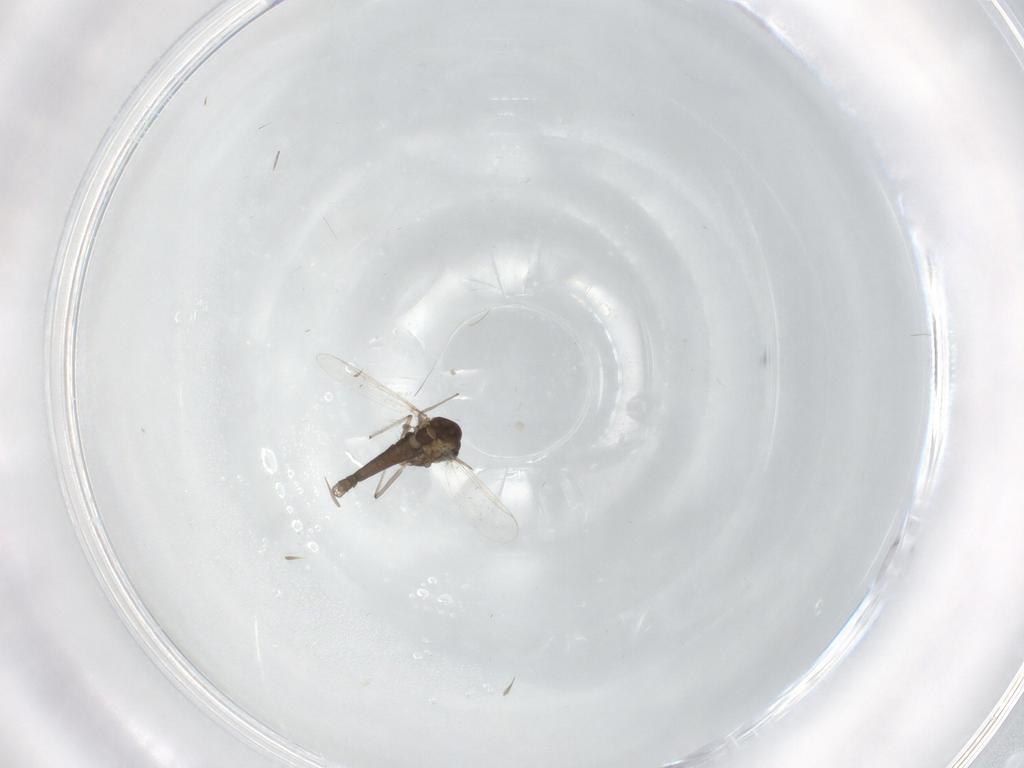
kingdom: Animalia
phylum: Arthropoda
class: Insecta
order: Diptera
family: Chironomidae
